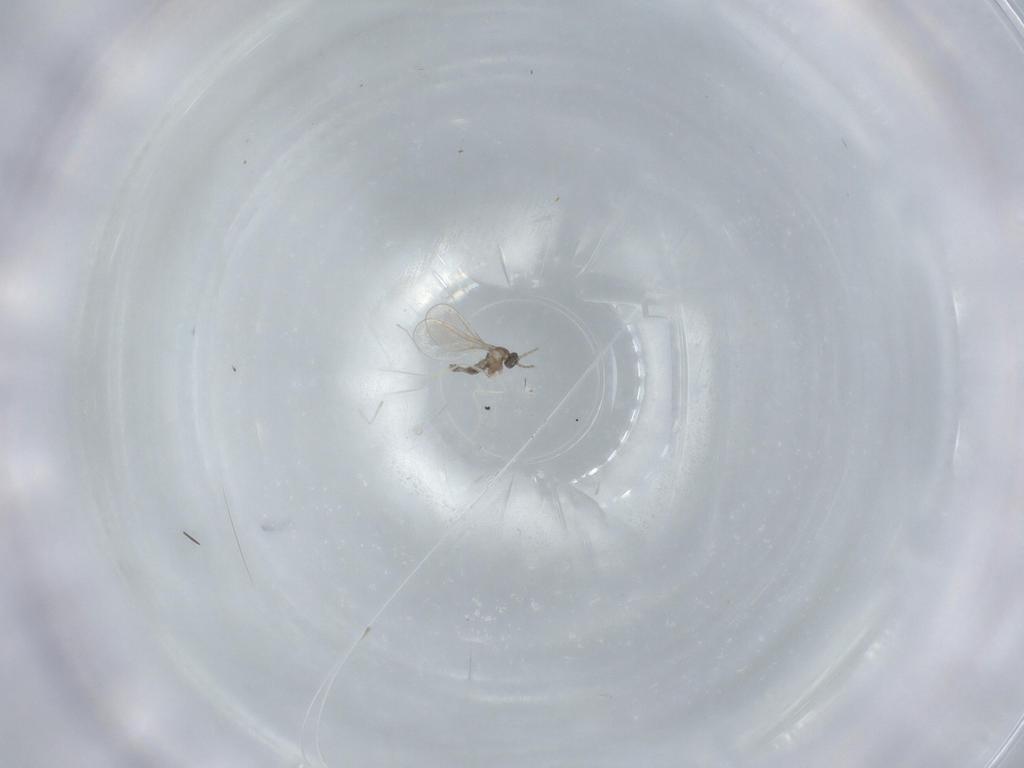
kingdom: Animalia
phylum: Arthropoda
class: Insecta
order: Diptera
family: Cecidomyiidae
